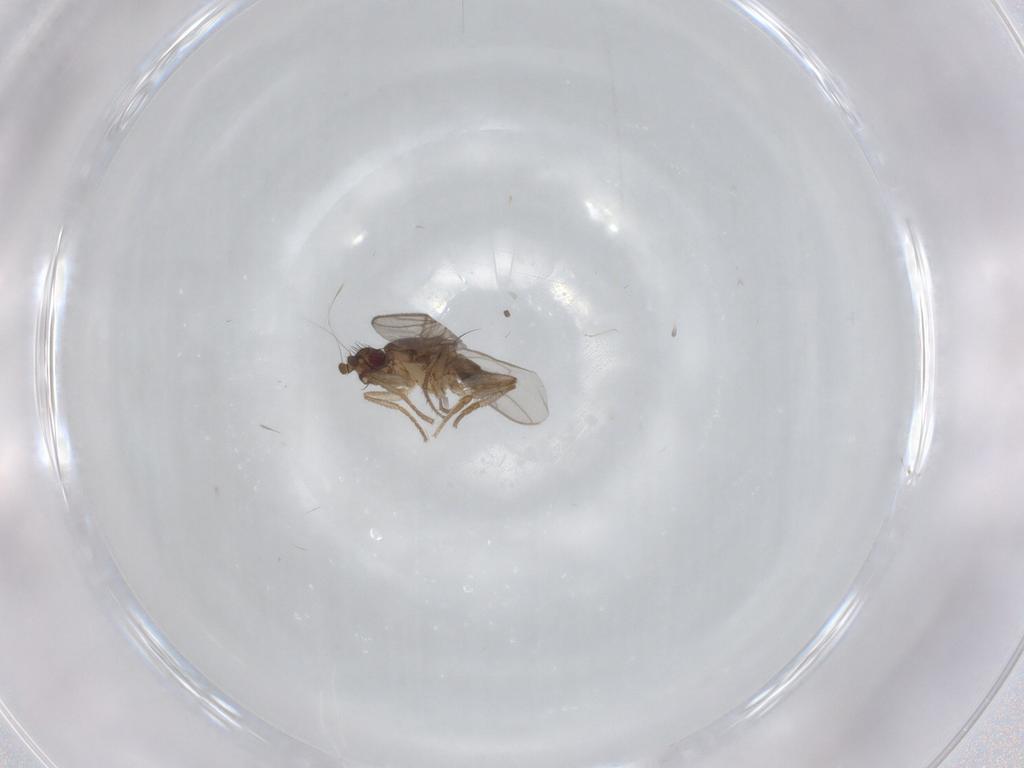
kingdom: Animalia
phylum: Arthropoda
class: Insecta
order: Diptera
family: Sphaeroceridae
